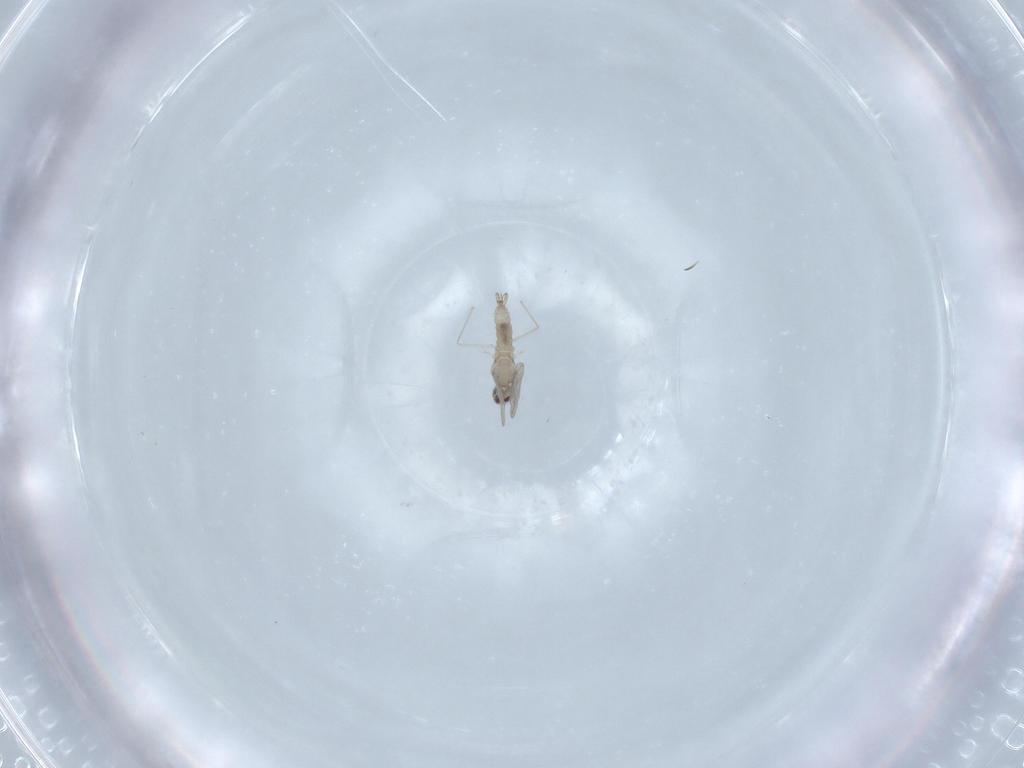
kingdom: Animalia
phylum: Arthropoda
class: Insecta
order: Diptera
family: Cecidomyiidae
